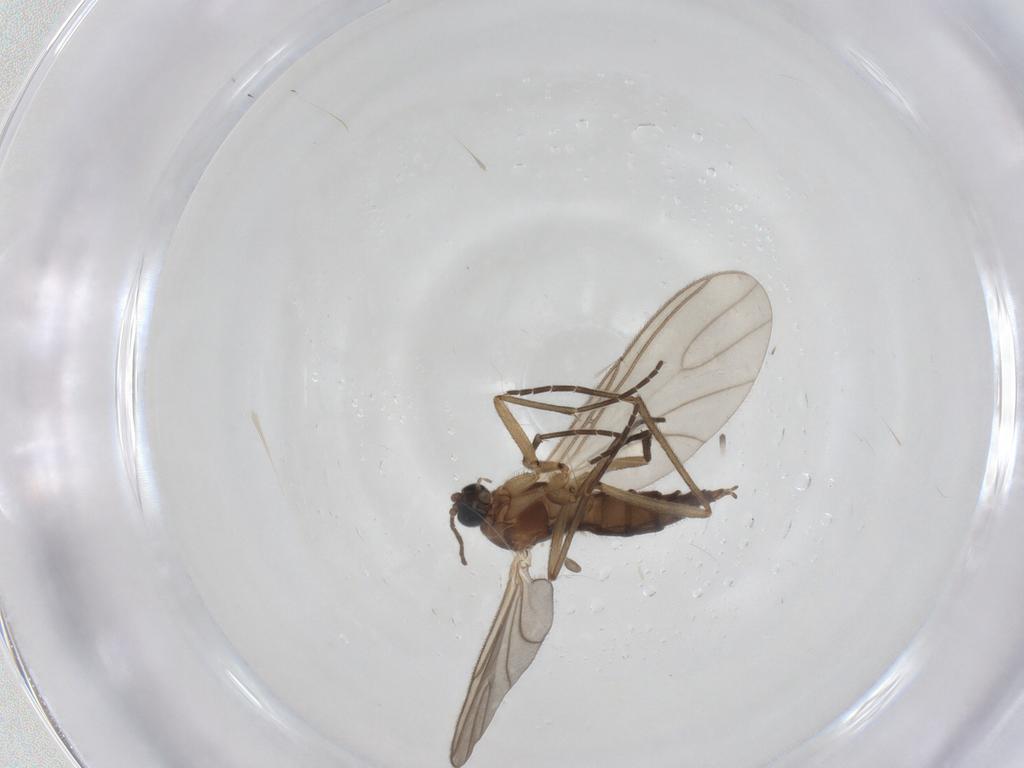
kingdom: Animalia
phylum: Arthropoda
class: Insecta
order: Diptera
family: Sciaridae
